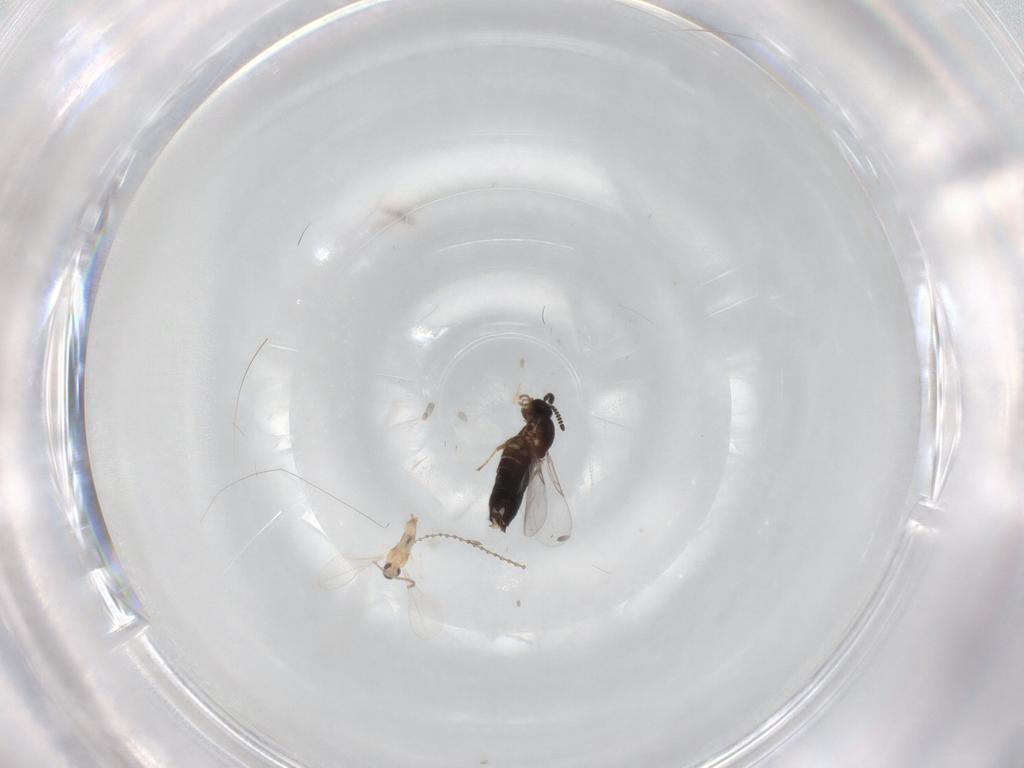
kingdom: Animalia
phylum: Arthropoda
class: Insecta
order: Diptera
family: Scatopsidae
